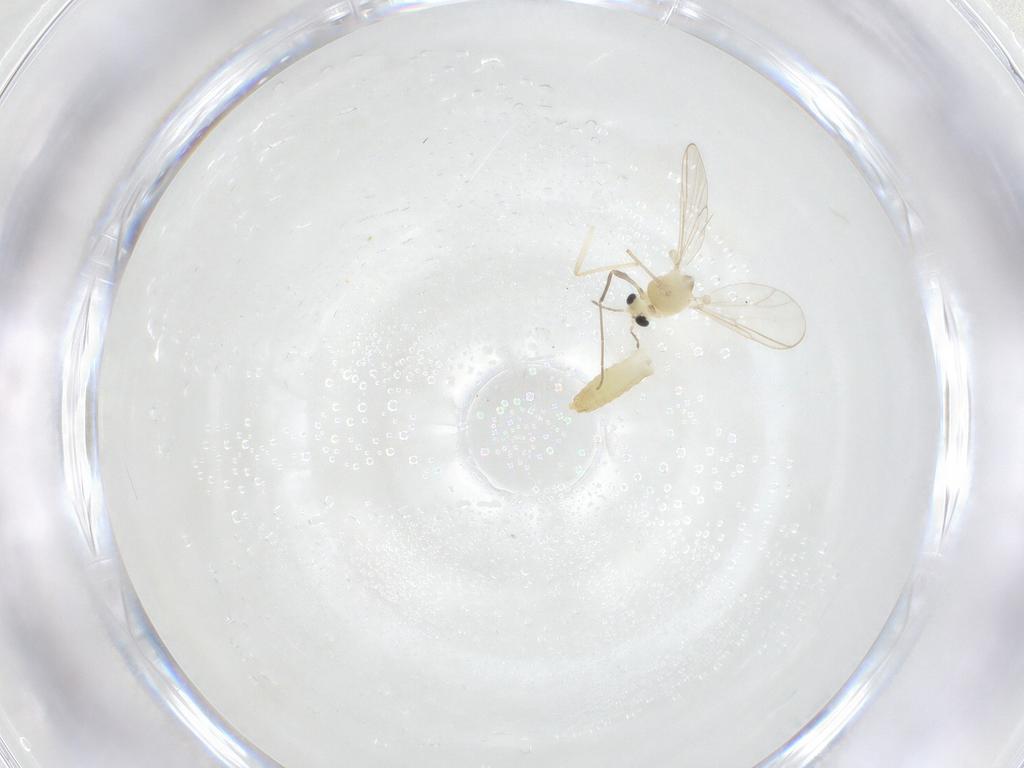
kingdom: Animalia
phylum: Arthropoda
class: Insecta
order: Diptera
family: Chironomidae
